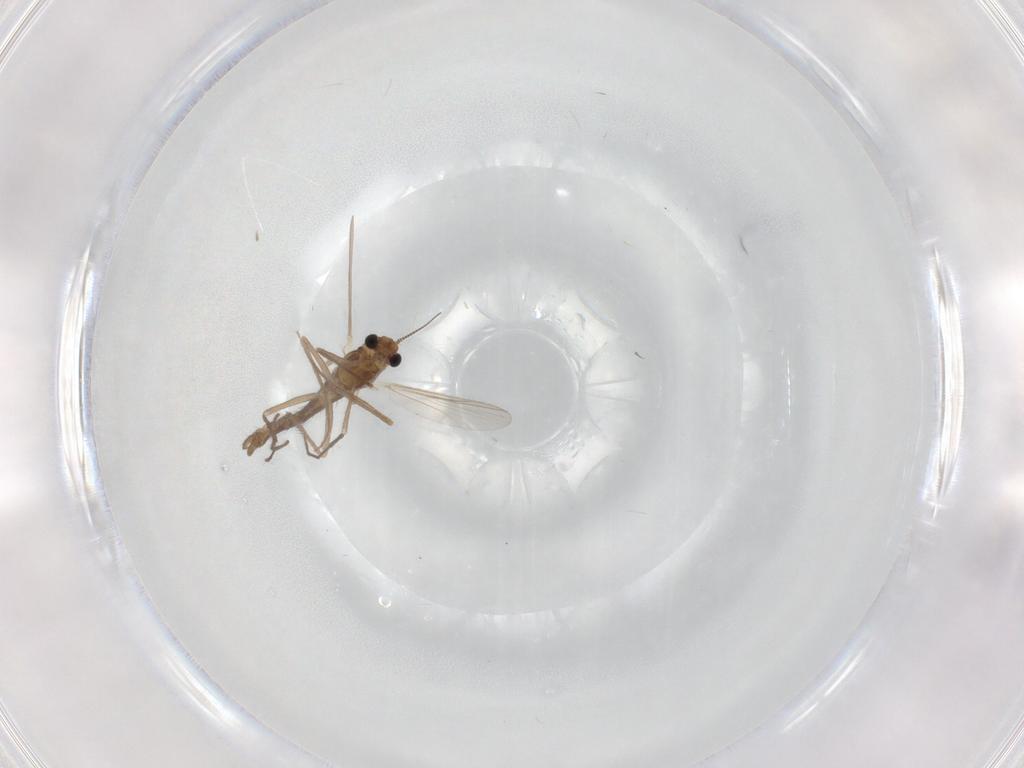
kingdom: Animalia
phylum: Arthropoda
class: Insecta
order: Diptera
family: Chironomidae
